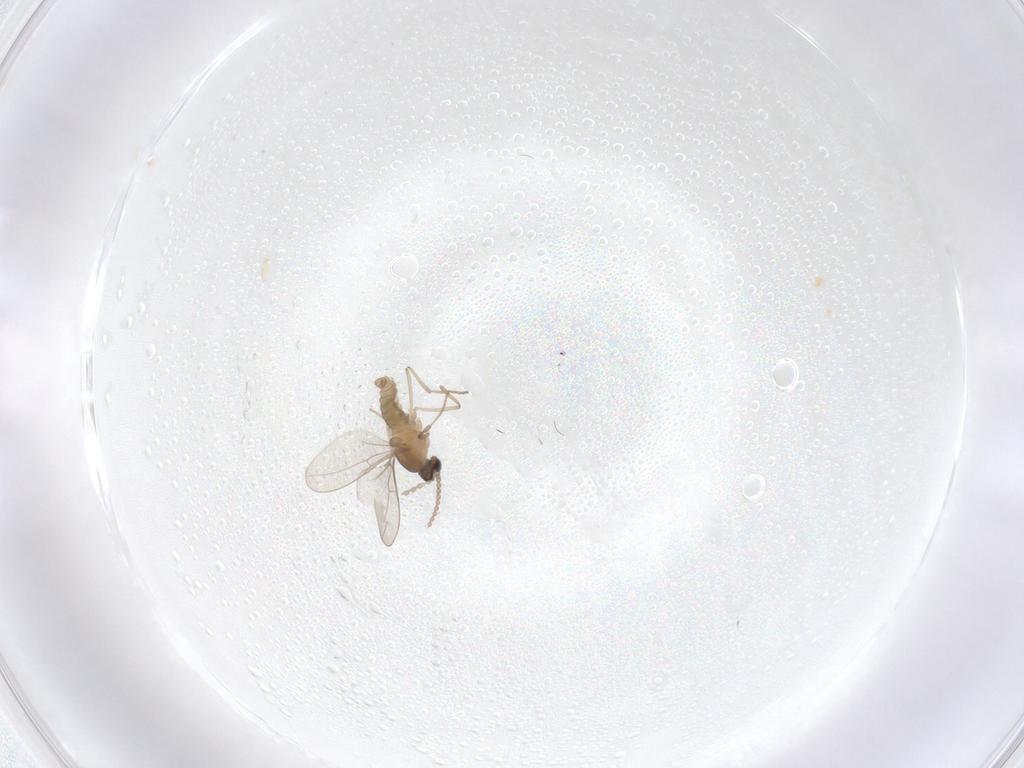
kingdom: Animalia
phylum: Arthropoda
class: Insecta
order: Diptera
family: Cecidomyiidae
